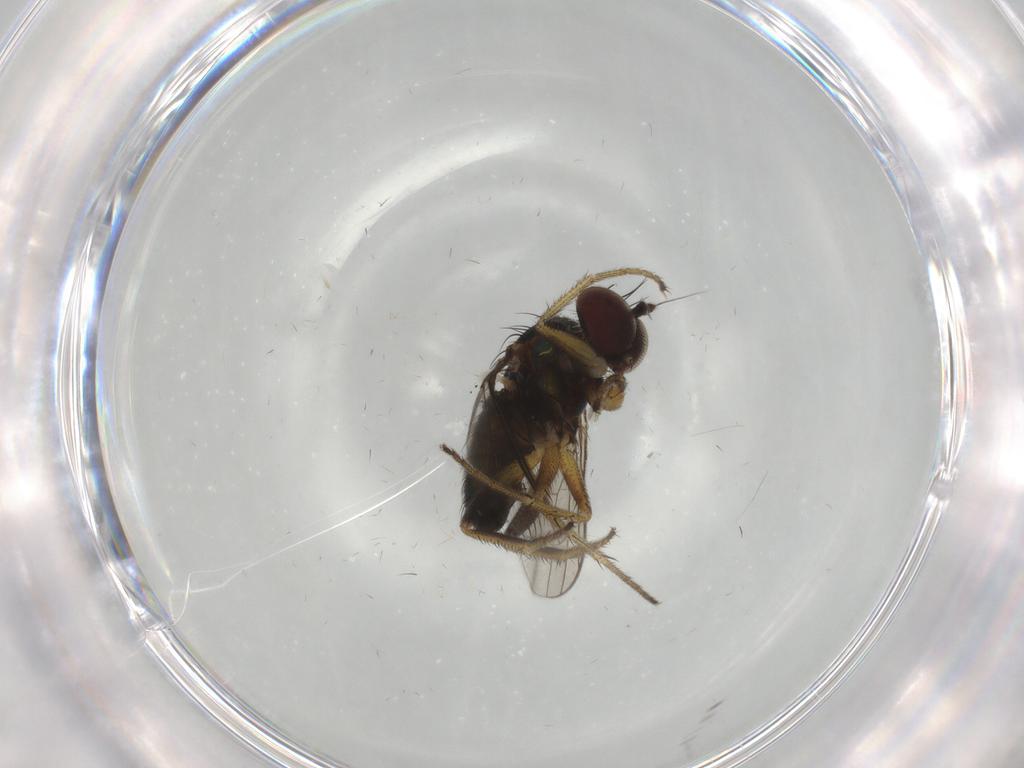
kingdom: Animalia
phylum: Arthropoda
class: Insecta
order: Diptera
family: Dolichopodidae
